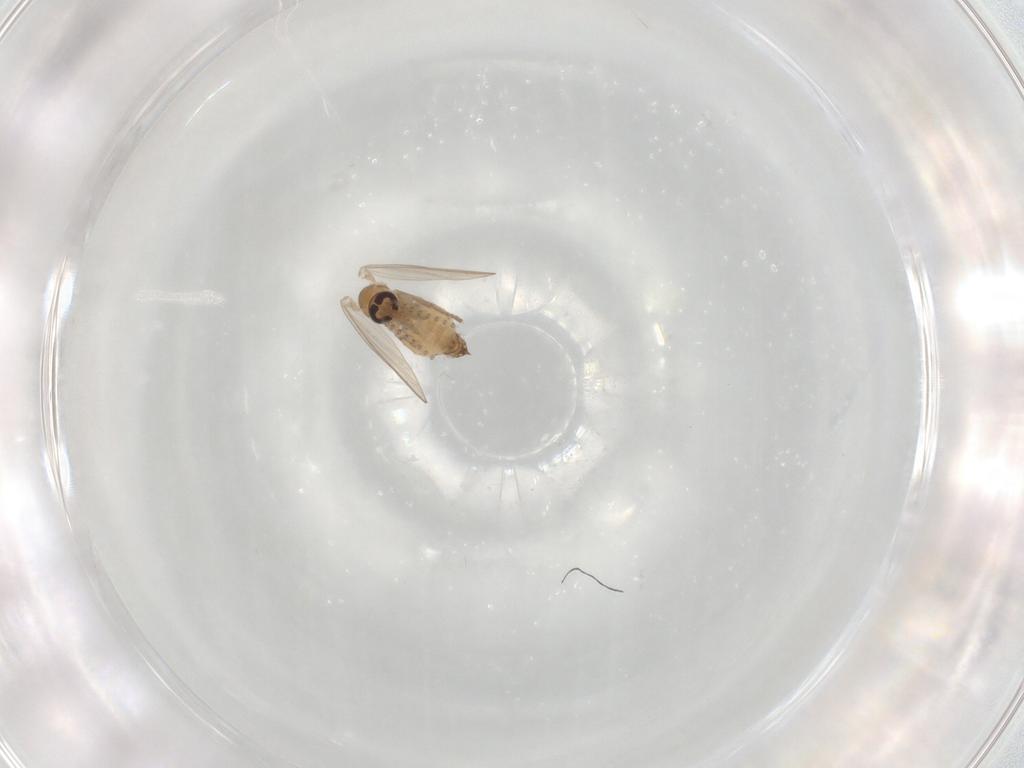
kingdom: Animalia
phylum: Arthropoda
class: Insecta
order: Diptera
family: Psychodidae
